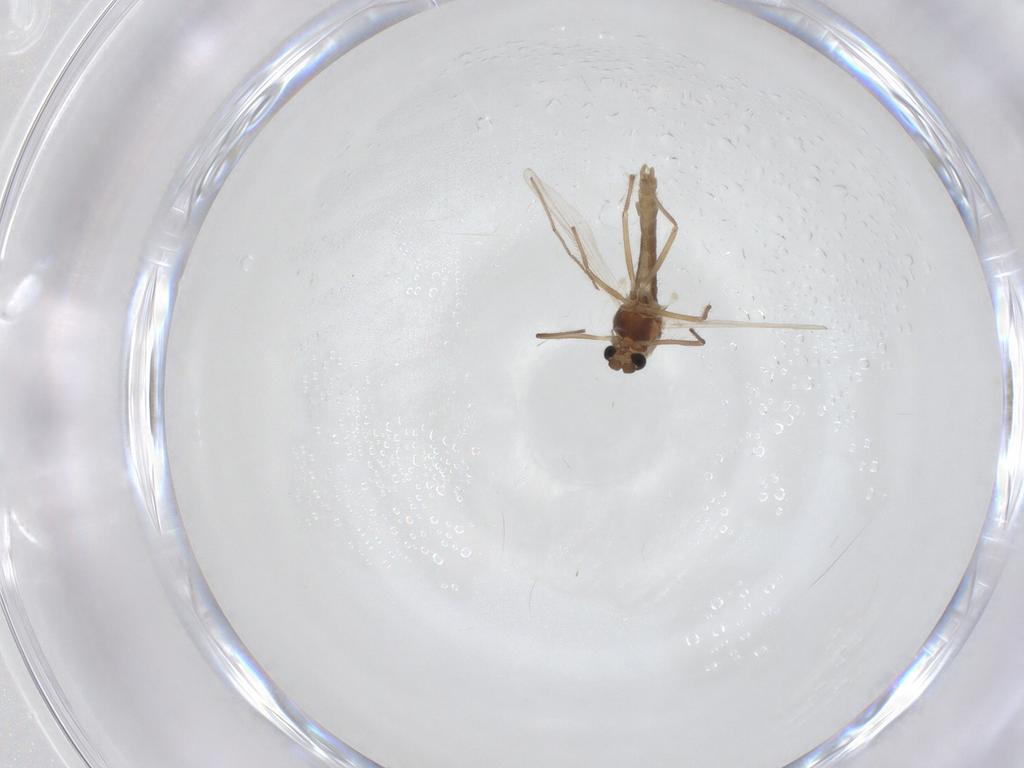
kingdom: Animalia
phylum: Arthropoda
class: Insecta
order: Diptera
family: Chironomidae
